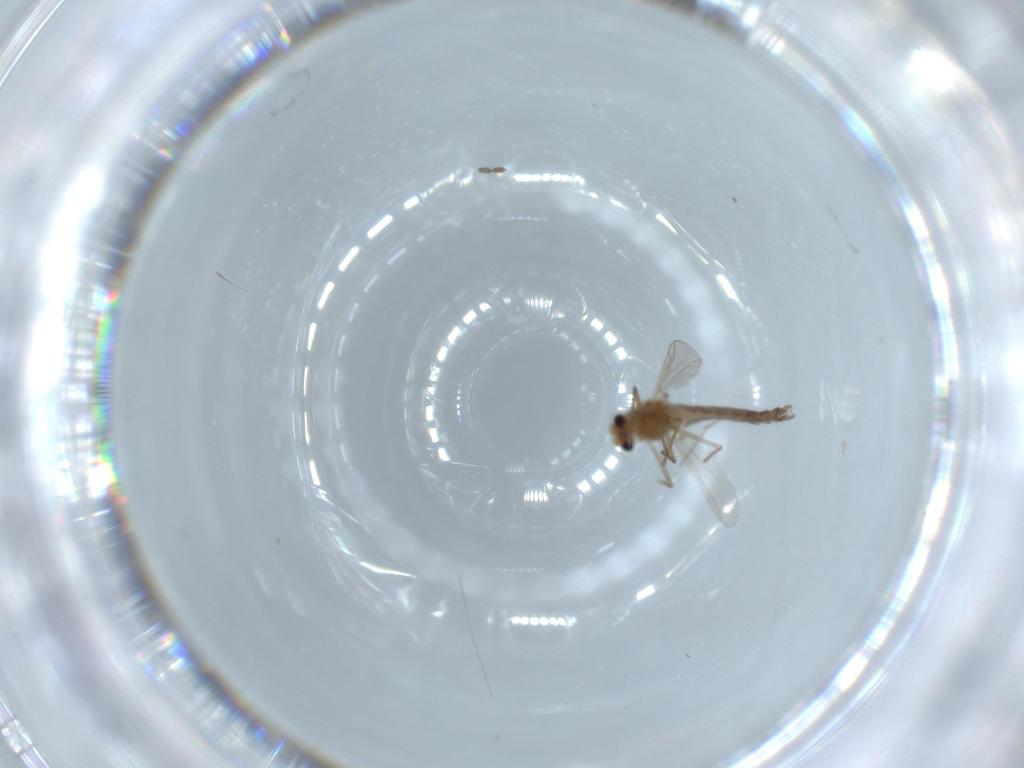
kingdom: Animalia
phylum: Arthropoda
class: Insecta
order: Diptera
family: Chironomidae
